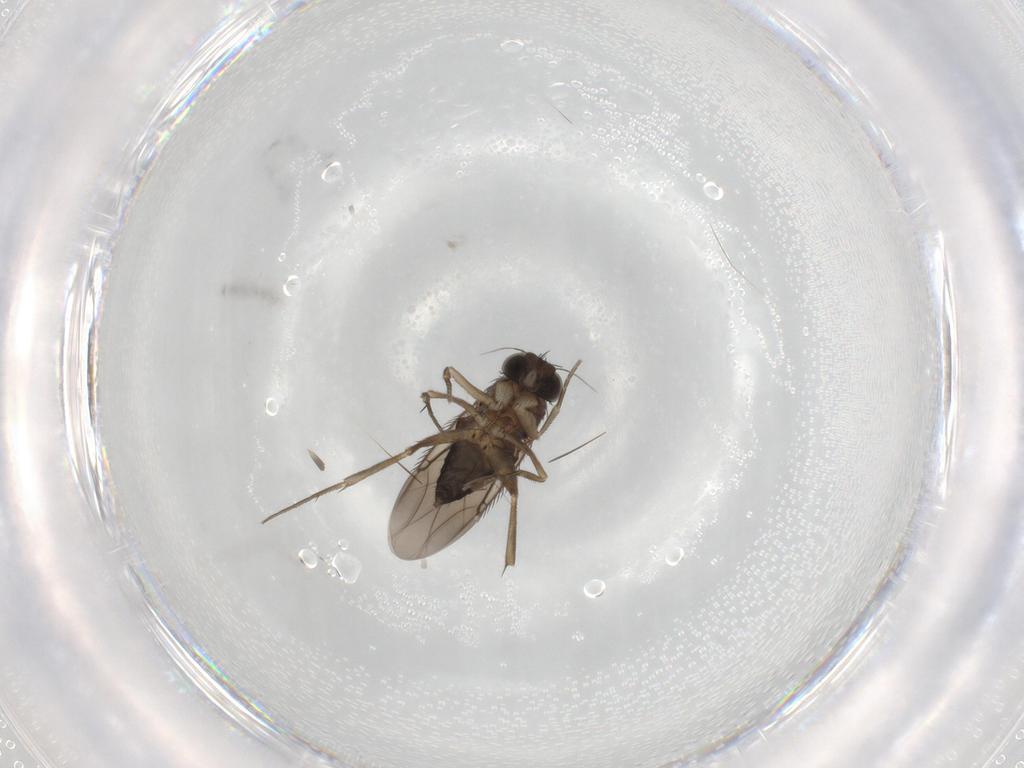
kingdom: Animalia
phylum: Arthropoda
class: Insecta
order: Diptera
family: Phoridae
